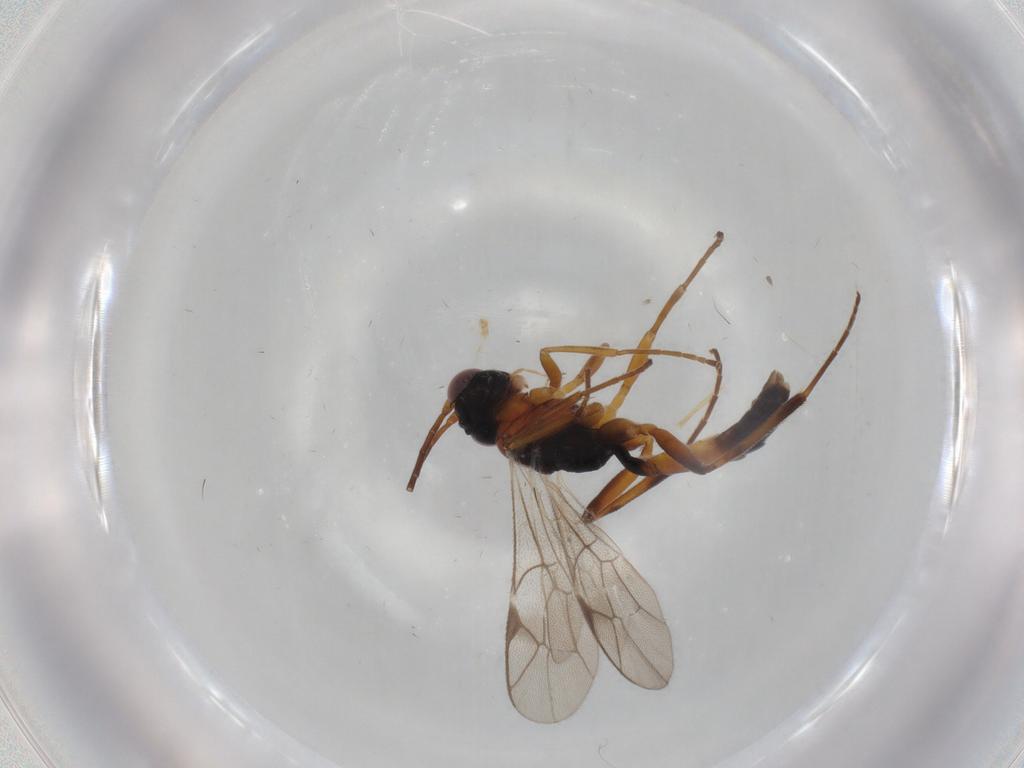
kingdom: Animalia
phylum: Arthropoda
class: Insecta
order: Hymenoptera
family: Ichneumonidae
